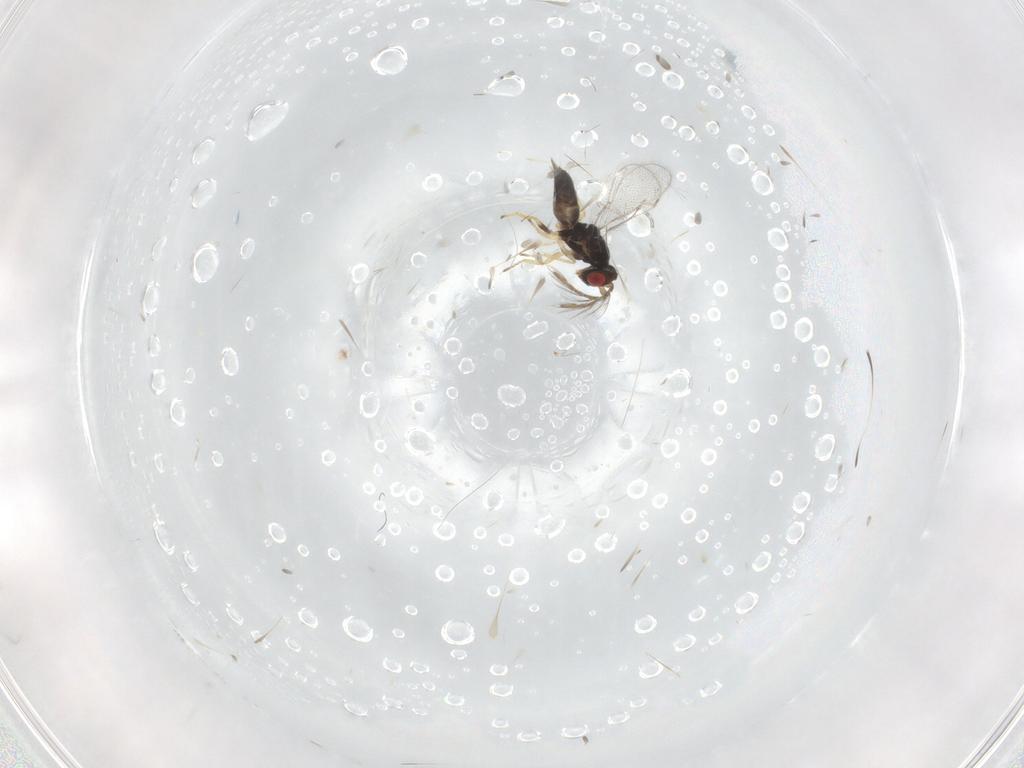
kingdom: Animalia
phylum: Arthropoda
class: Insecta
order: Hymenoptera
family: Eulophidae
